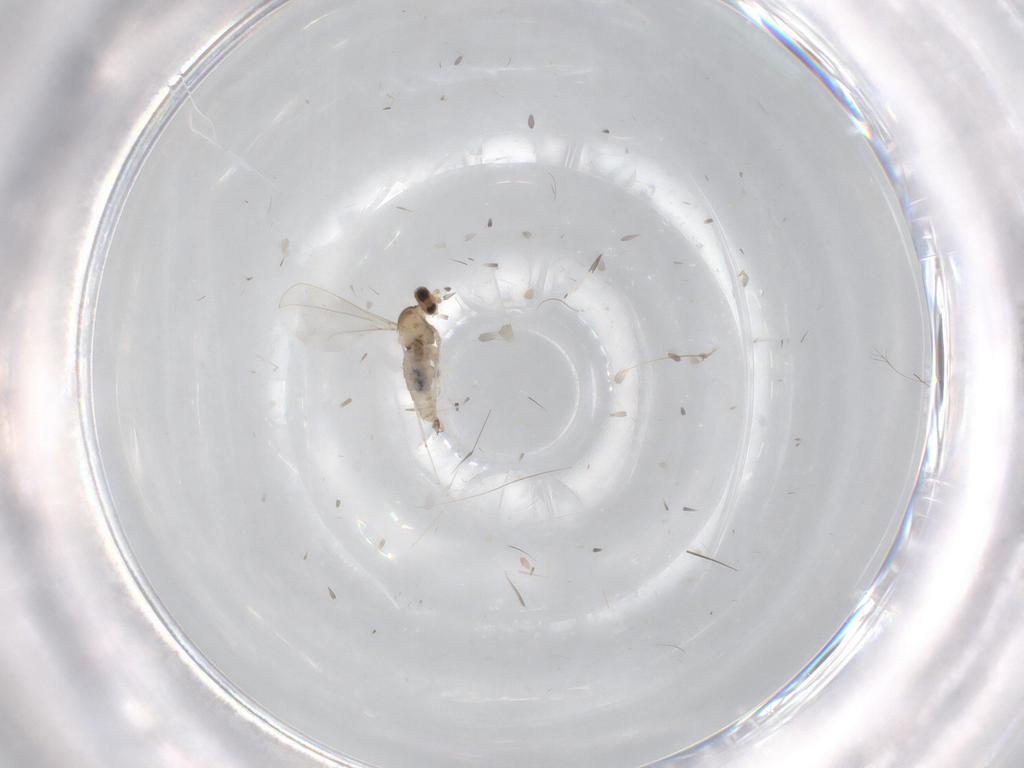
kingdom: Animalia
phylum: Arthropoda
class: Insecta
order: Diptera
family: Cecidomyiidae
